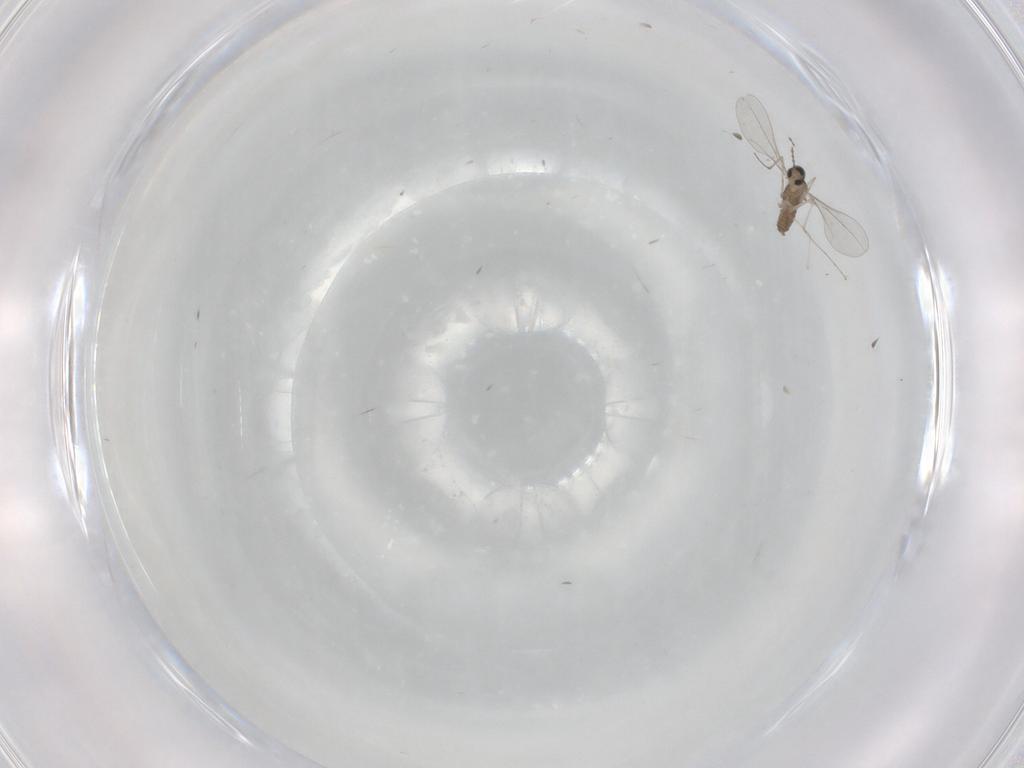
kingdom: Animalia
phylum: Arthropoda
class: Insecta
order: Diptera
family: Cecidomyiidae
